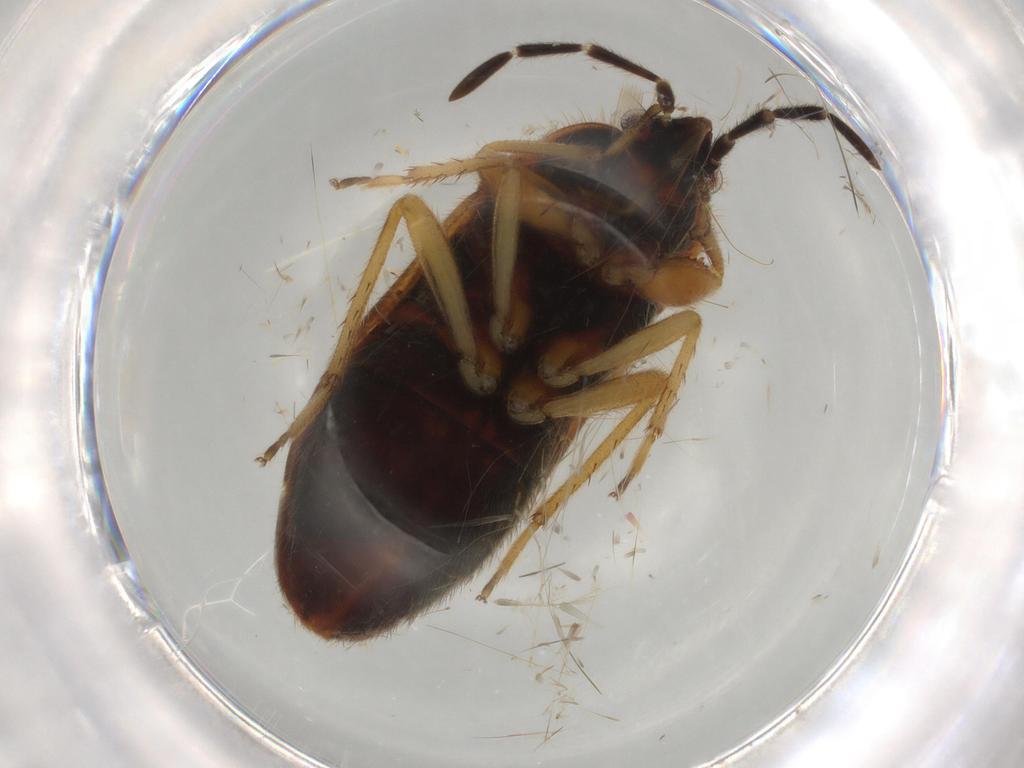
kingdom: Animalia
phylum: Arthropoda
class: Insecta
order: Hemiptera
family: Rhyparochromidae
